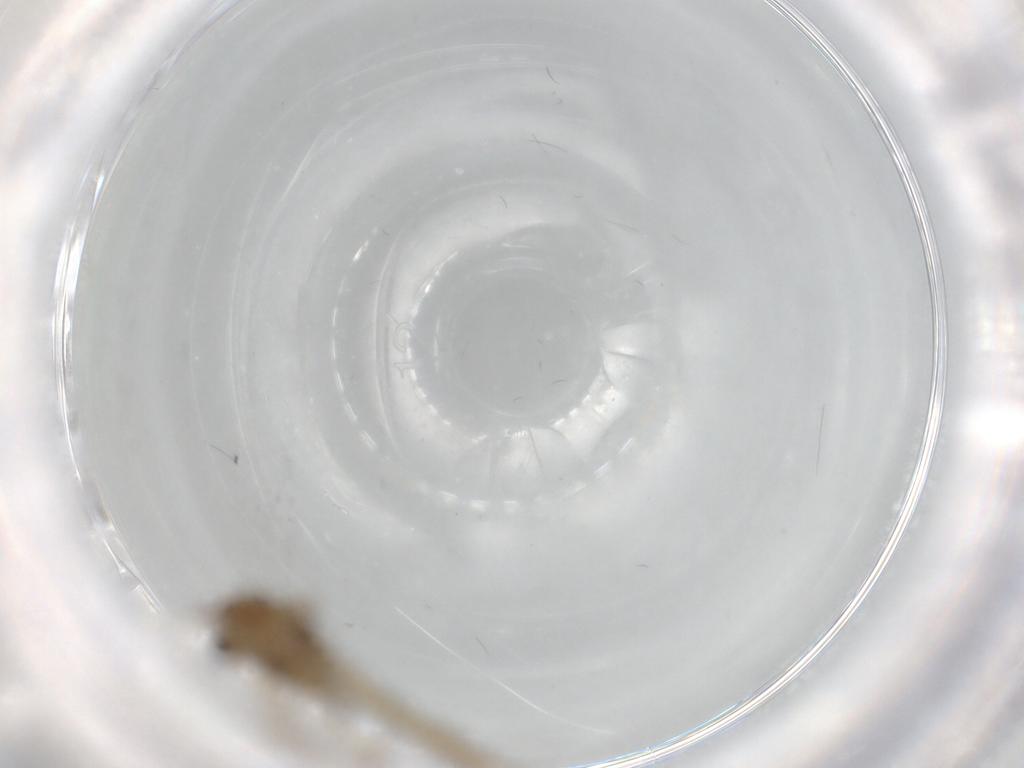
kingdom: Animalia
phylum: Arthropoda
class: Insecta
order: Diptera
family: Chironomidae
